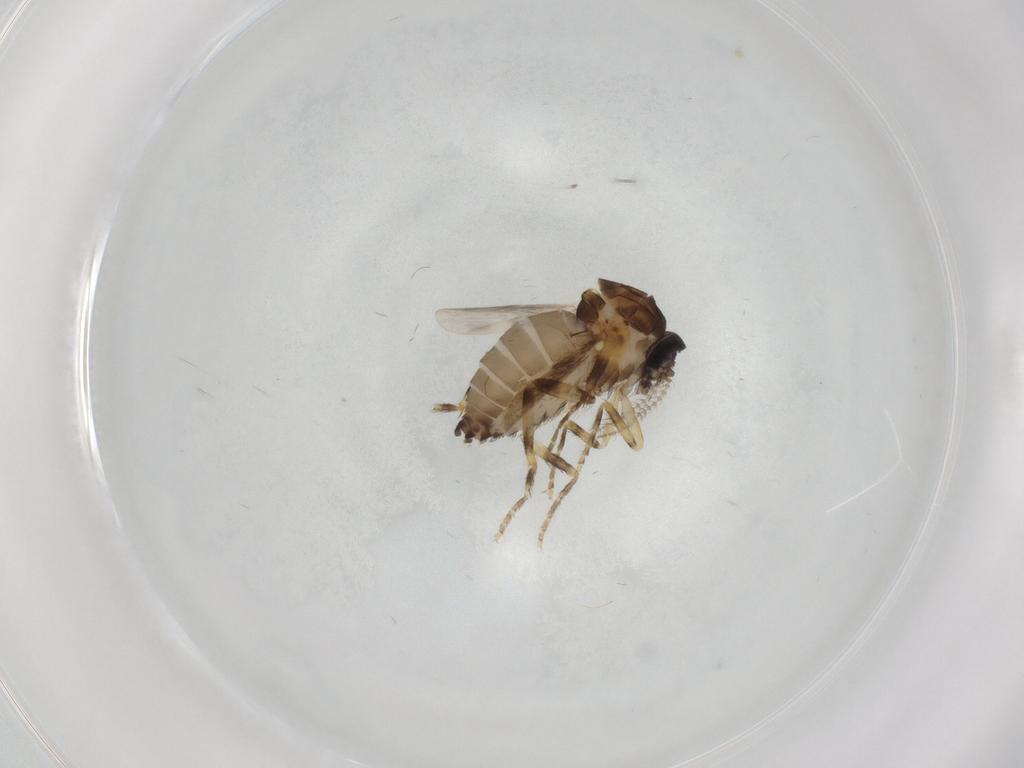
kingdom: Animalia
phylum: Arthropoda
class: Insecta
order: Diptera
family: Ceratopogonidae
